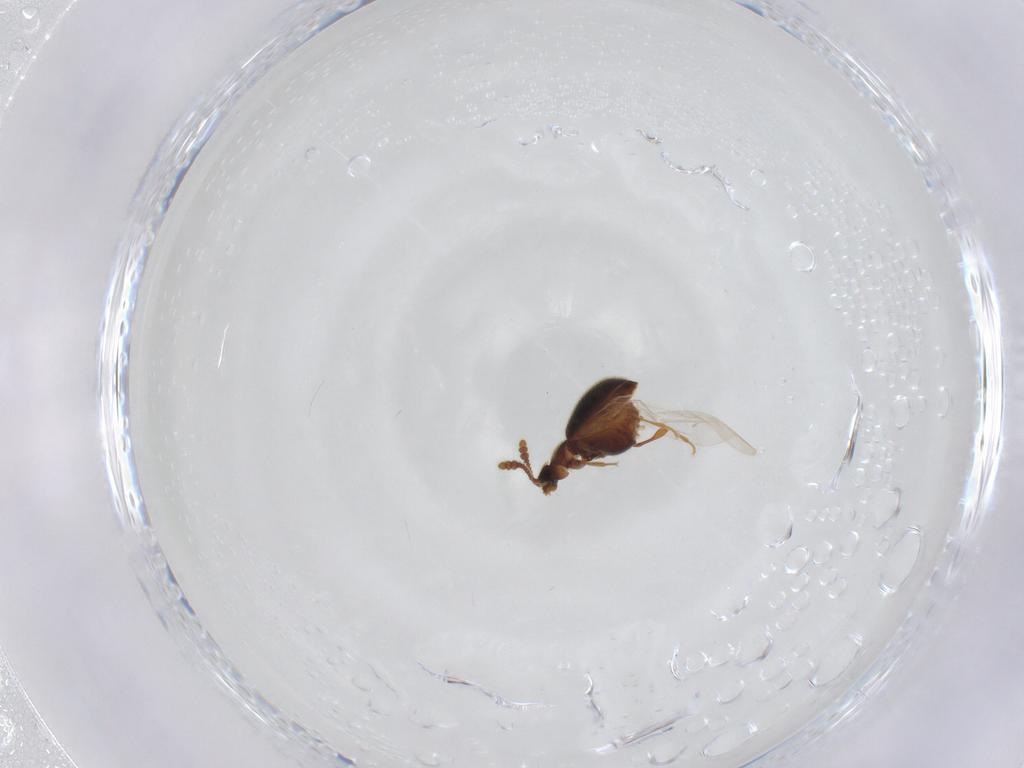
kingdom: Animalia
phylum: Arthropoda
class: Insecta
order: Coleoptera
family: Staphylinidae
